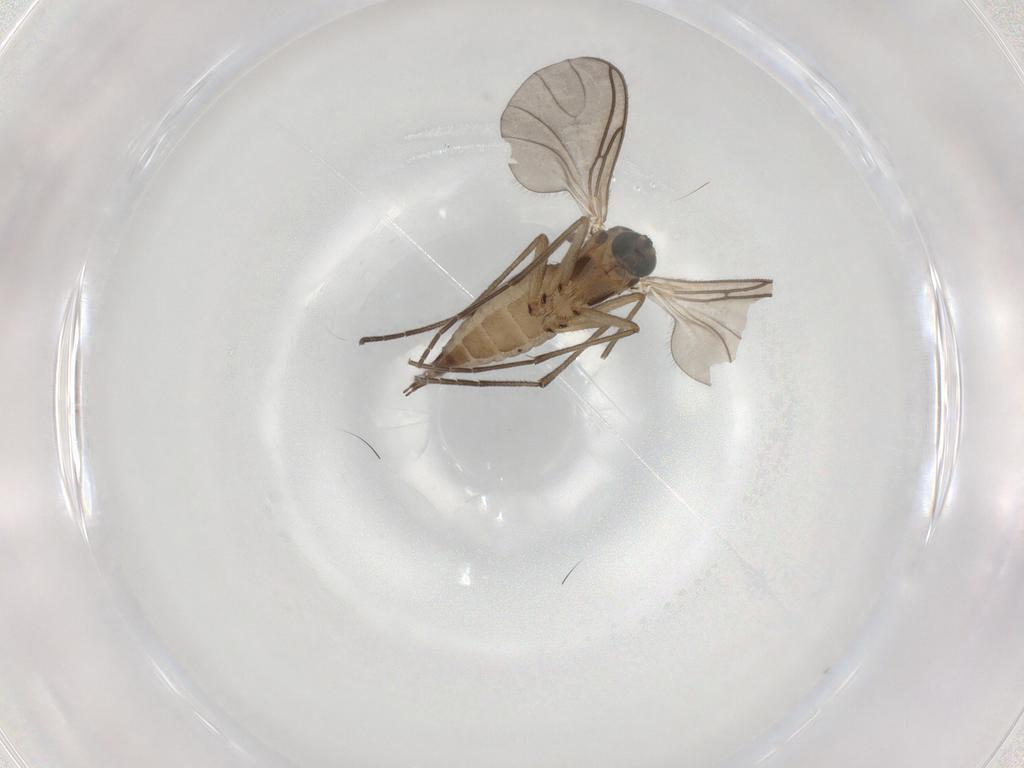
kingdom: Animalia
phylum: Arthropoda
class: Insecta
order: Diptera
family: Sciaridae
